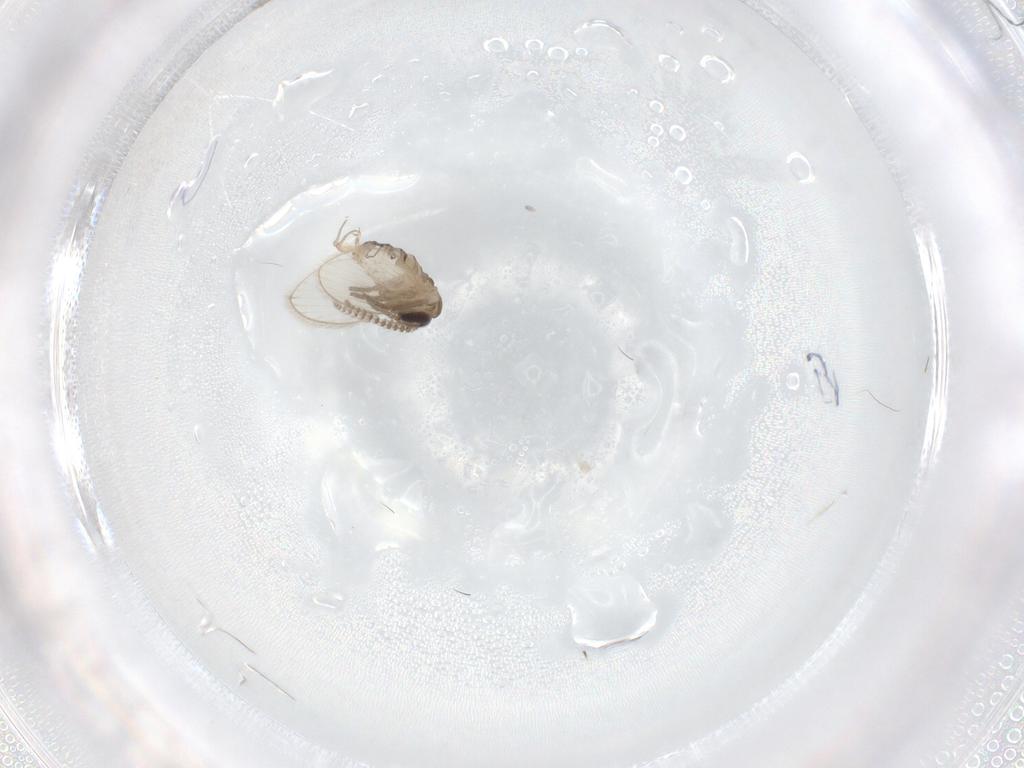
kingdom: Animalia
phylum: Arthropoda
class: Insecta
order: Diptera
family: Psychodidae
